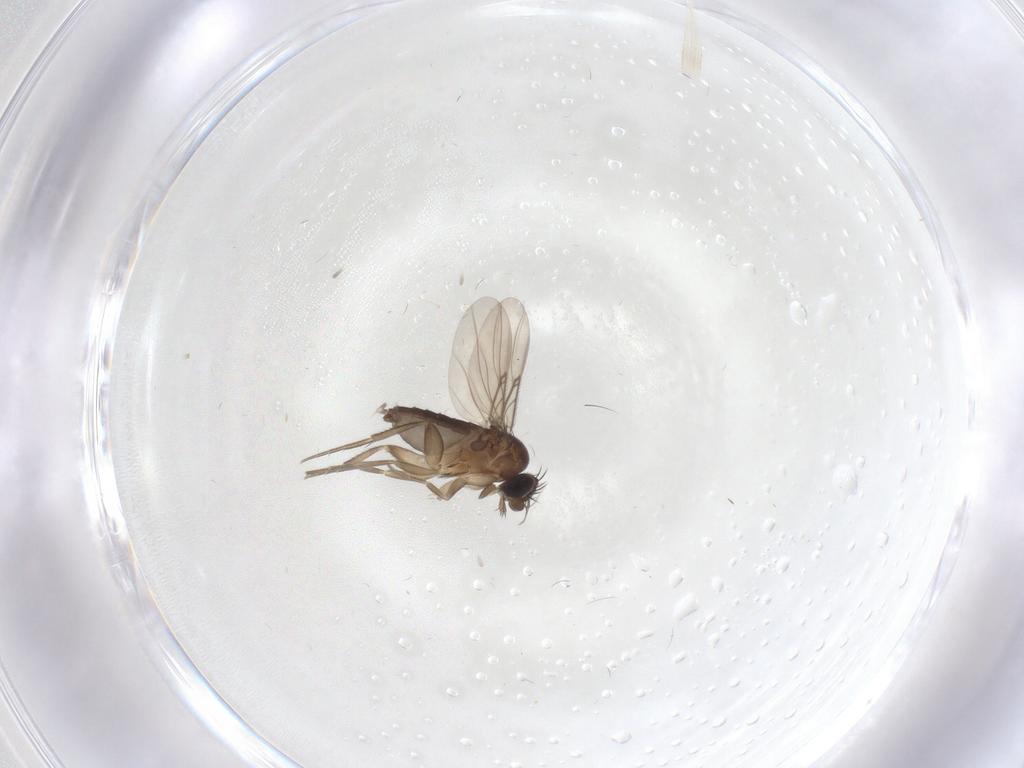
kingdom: Animalia
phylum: Arthropoda
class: Insecta
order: Diptera
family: Phoridae
